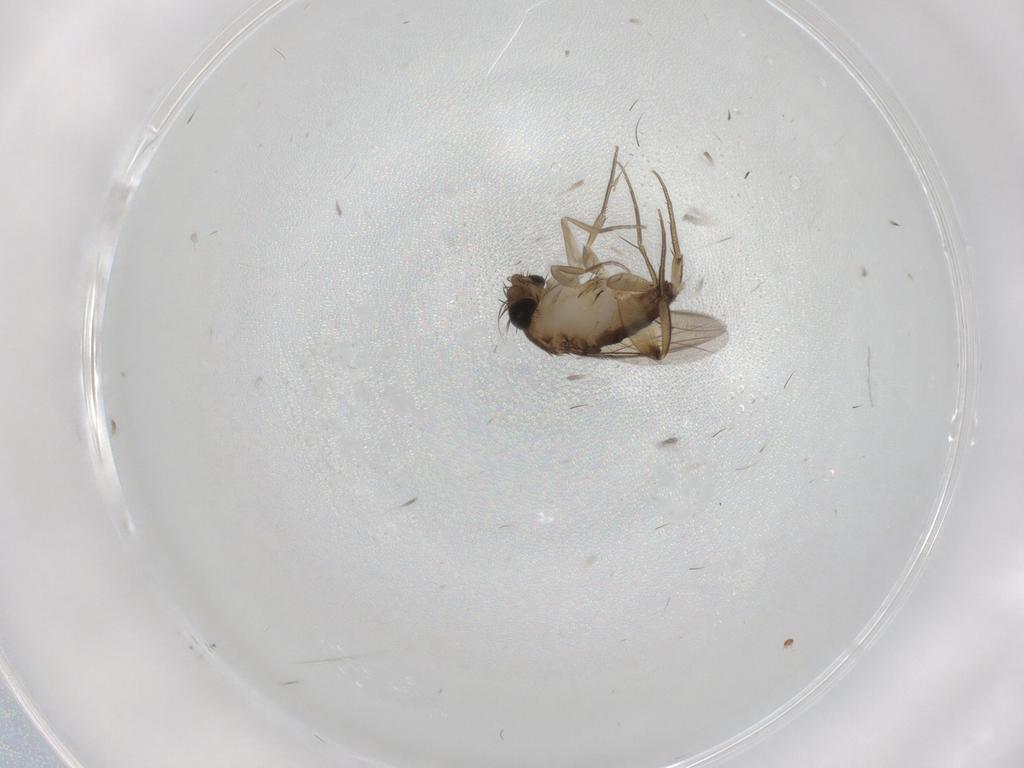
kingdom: Animalia
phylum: Arthropoda
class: Insecta
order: Diptera
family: Phoridae
